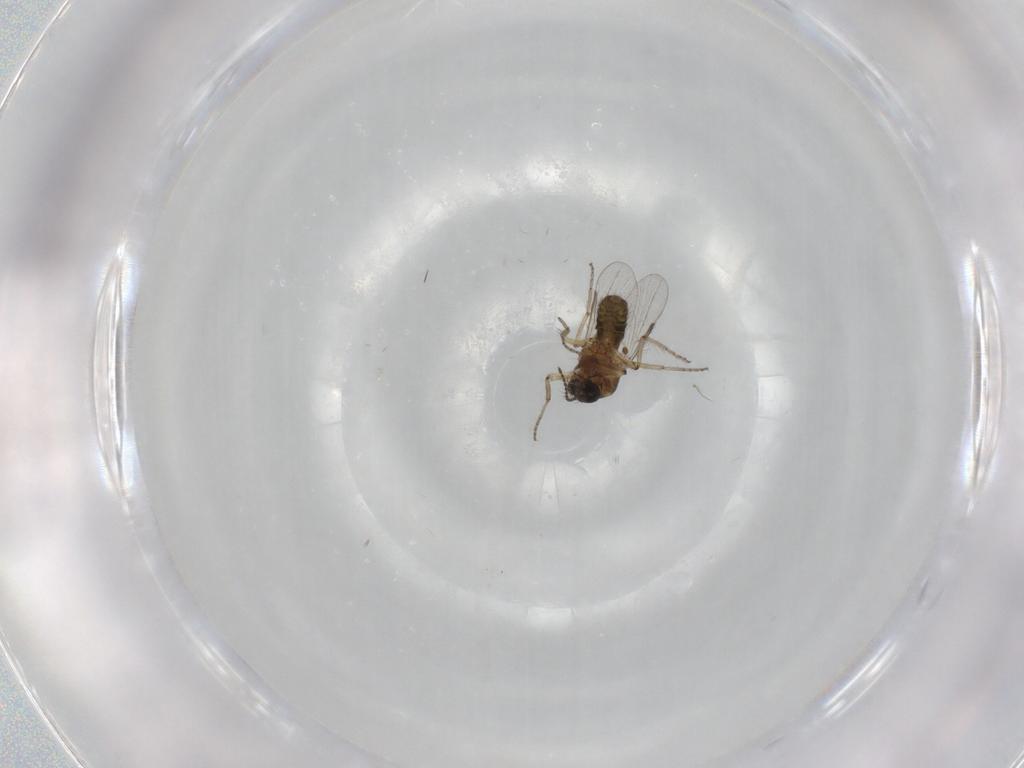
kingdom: Animalia
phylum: Arthropoda
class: Insecta
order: Diptera
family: Ceratopogonidae
